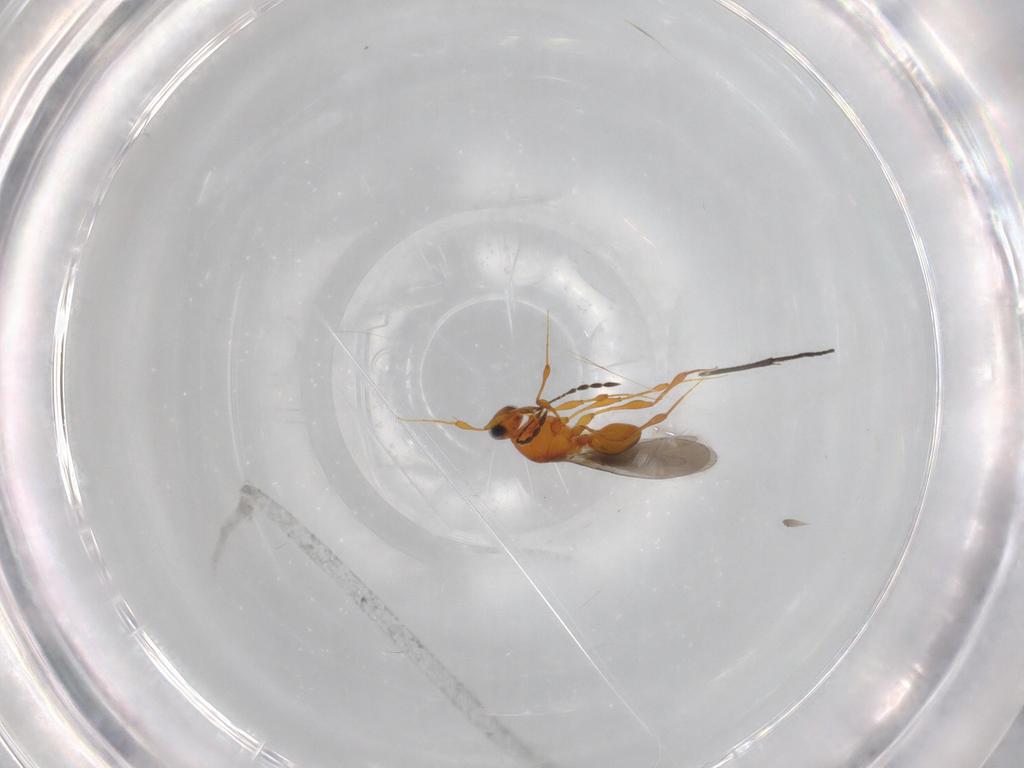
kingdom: Animalia
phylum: Arthropoda
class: Insecta
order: Hymenoptera
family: Platygastridae
